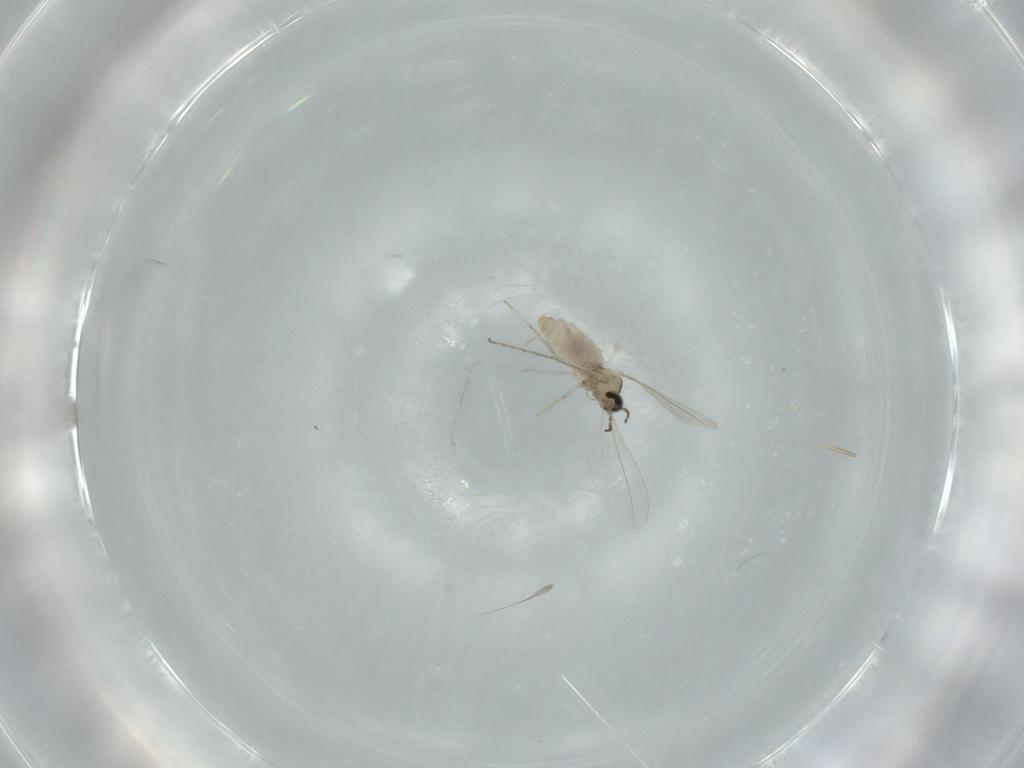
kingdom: Animalia
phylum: Arthropoda
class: Insecta
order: Diptera
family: Cecidomyiidae
